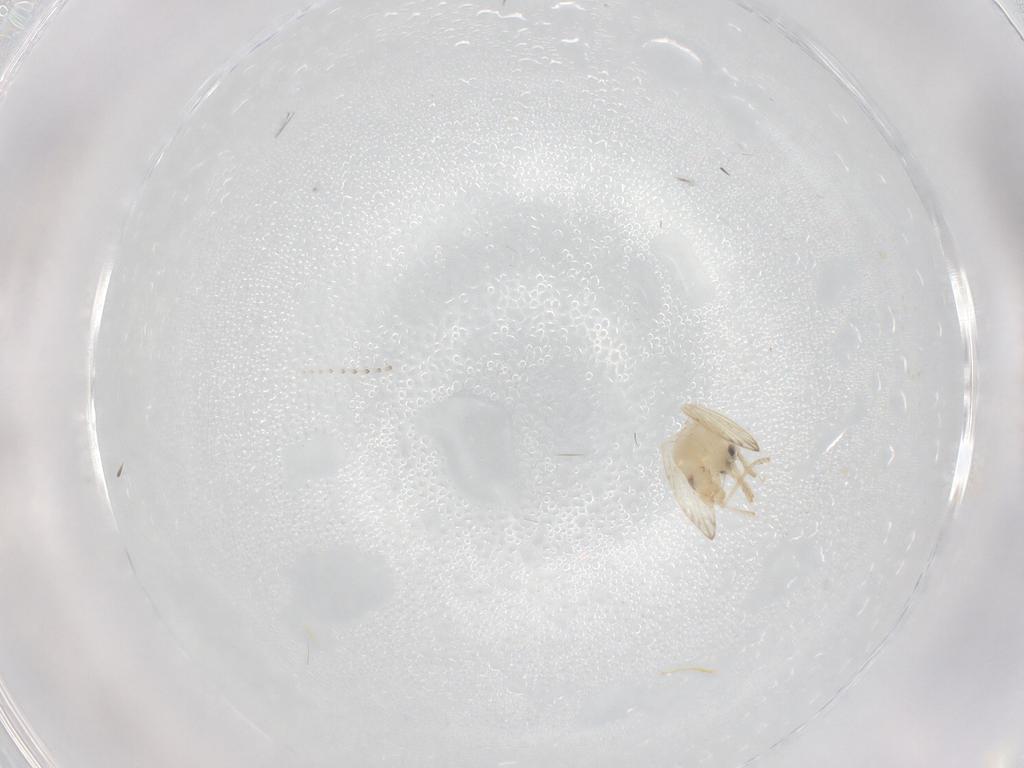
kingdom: Animalia
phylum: Arthropoda
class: Insecta
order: Diptera
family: Psychodidae
